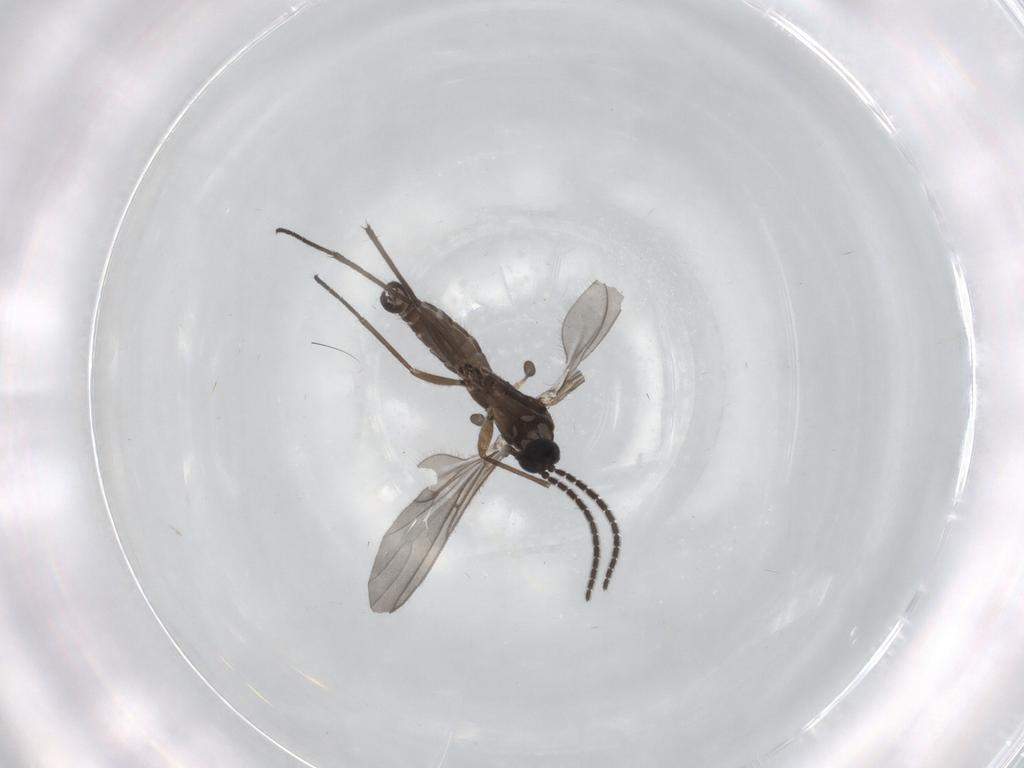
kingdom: Animalia
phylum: Arthropoda
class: Insecta
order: Diptera
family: Sciaridae
